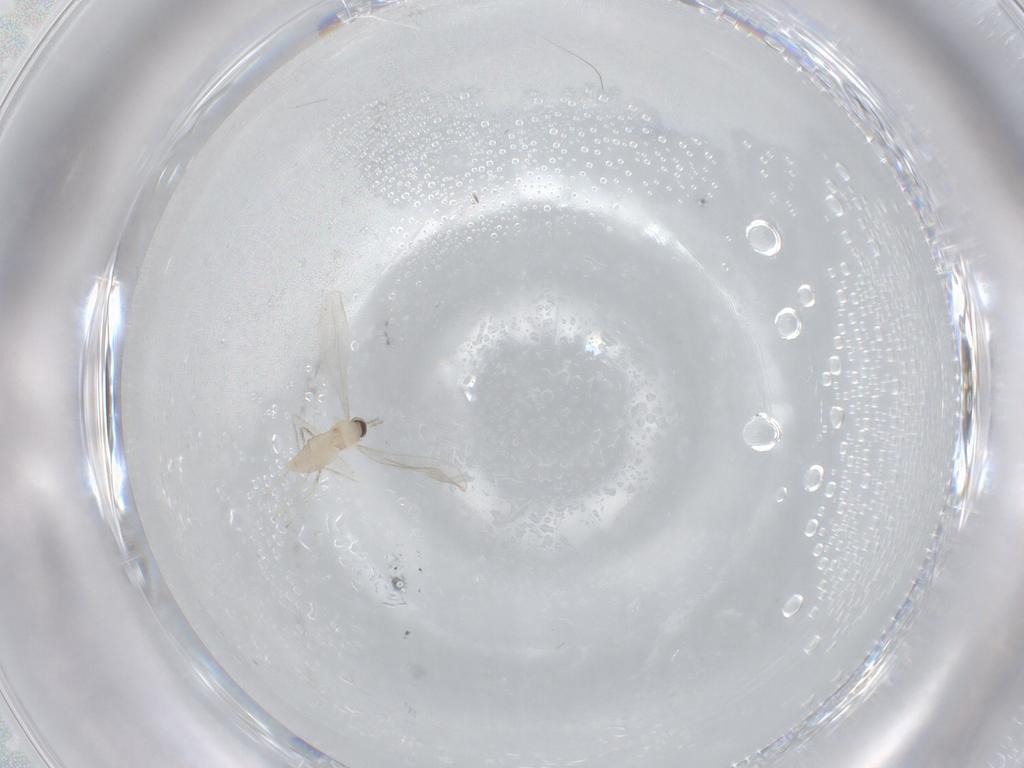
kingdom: Animalia
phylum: Arthropoda
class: Insecta
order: Diptera
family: Cecidomyiidae
